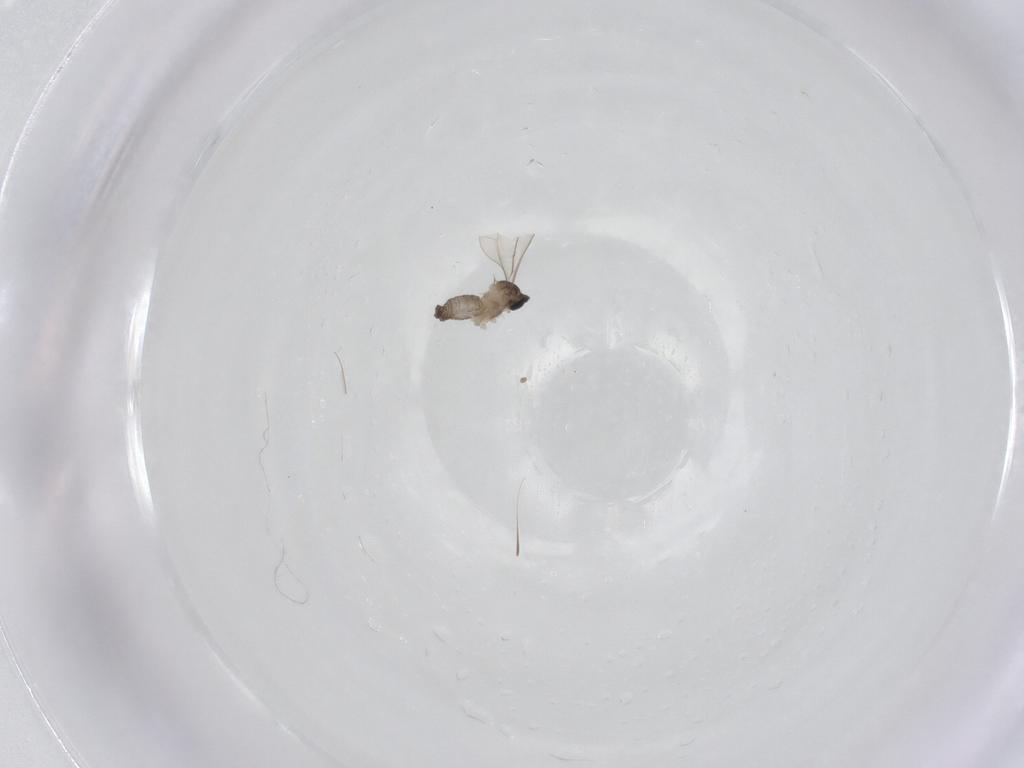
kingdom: Animalia
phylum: Arthropoda
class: Insecta
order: Diptera
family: Cecidomyiidae
